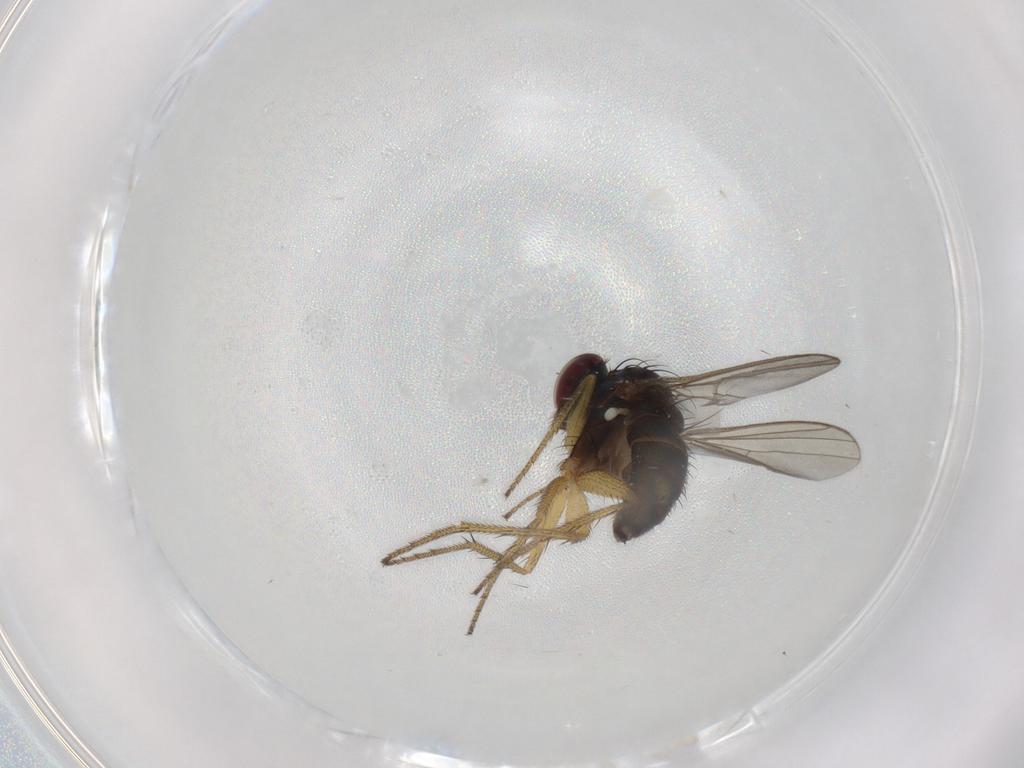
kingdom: Animalia
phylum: Arthropoda
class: Insecta
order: Diptera
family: Dolichopodidae
